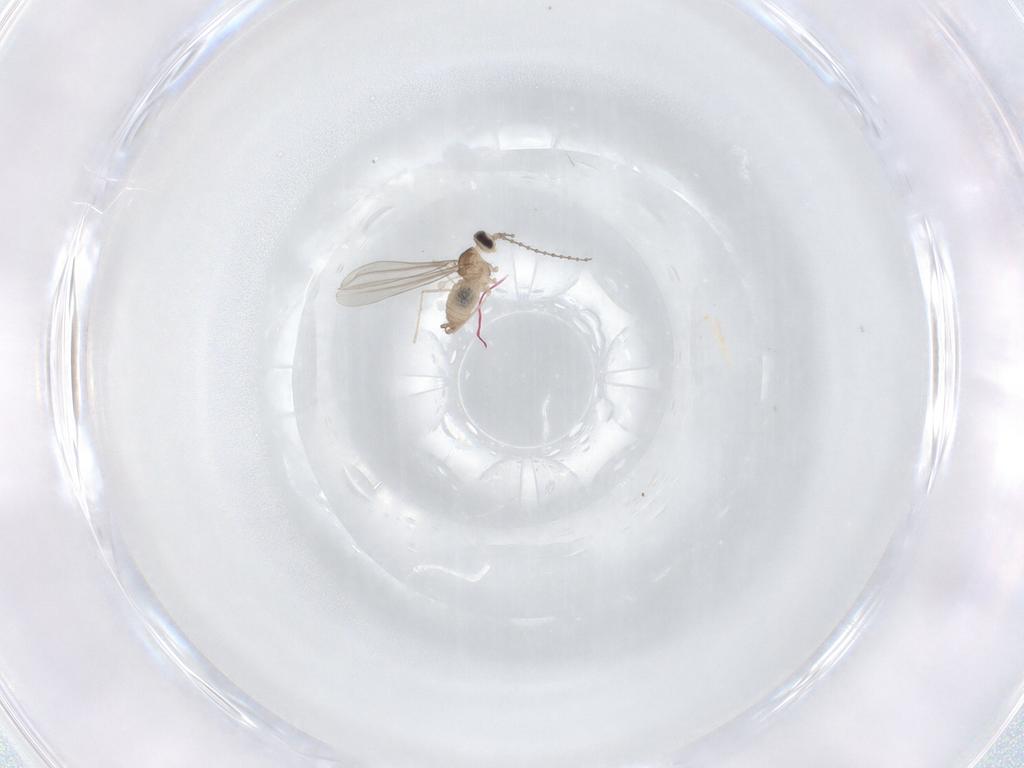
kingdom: Animalia
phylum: Arthropoda
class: Insecta
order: Diptera
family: Cecidomyiidae
